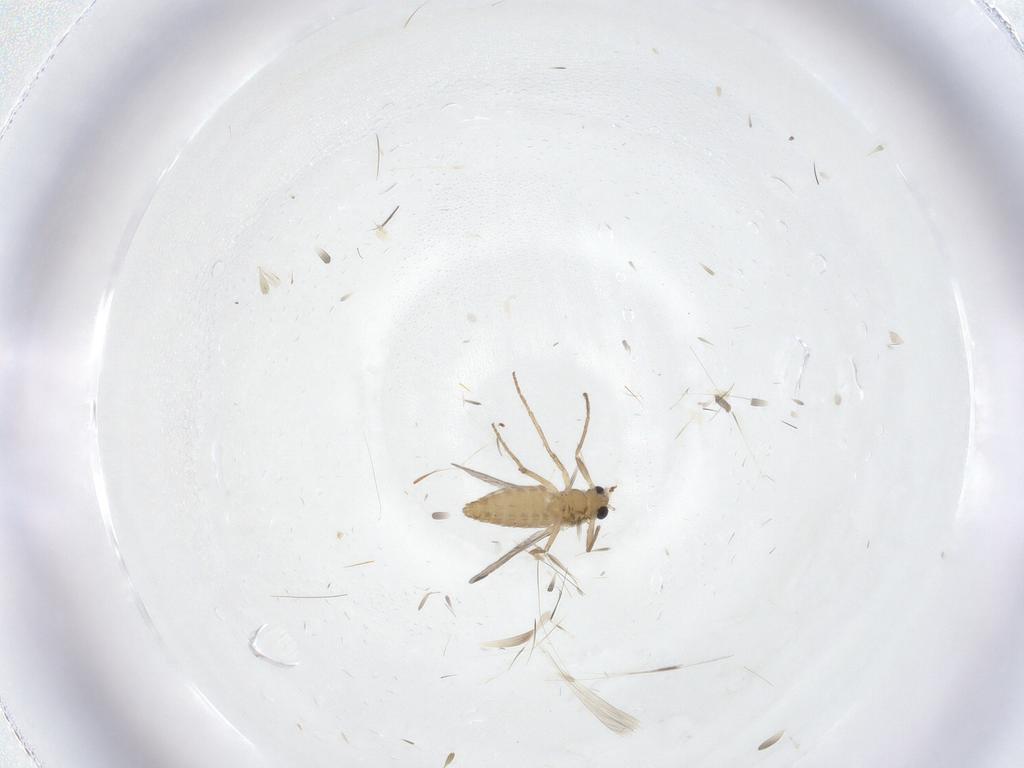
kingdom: Animalia
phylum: Arthropoda
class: Insecta
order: Diptera
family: Chironomidae
